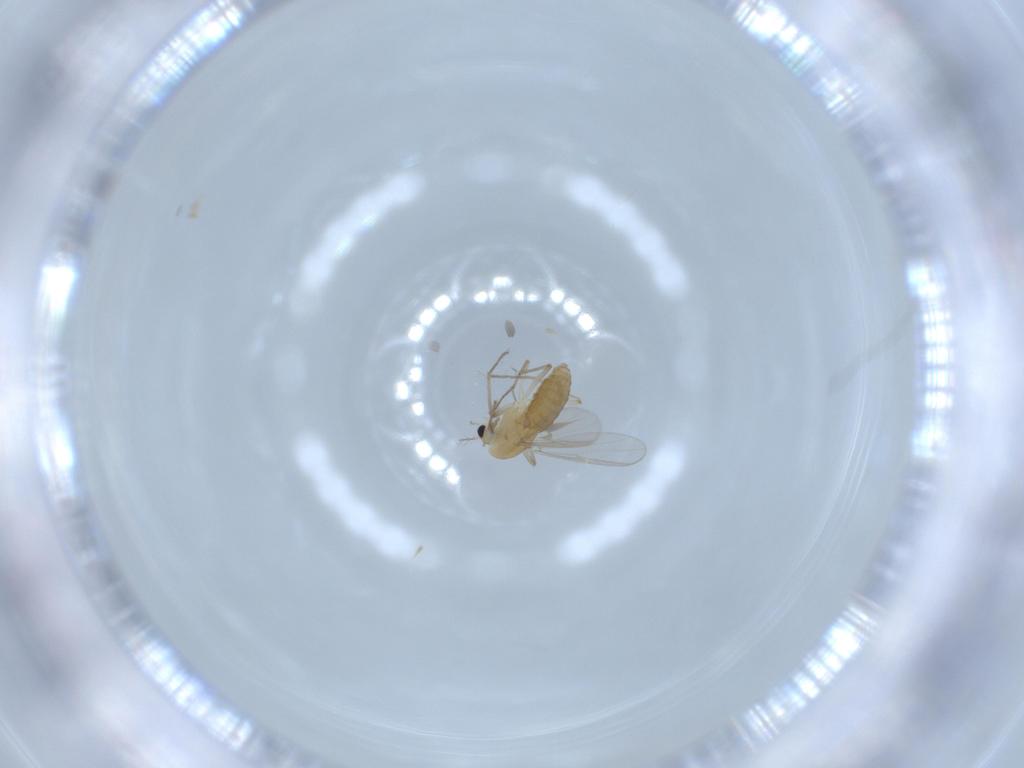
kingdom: Animalia
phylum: Arthropoda
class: Insecta
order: Diptera
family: Chironomidae
